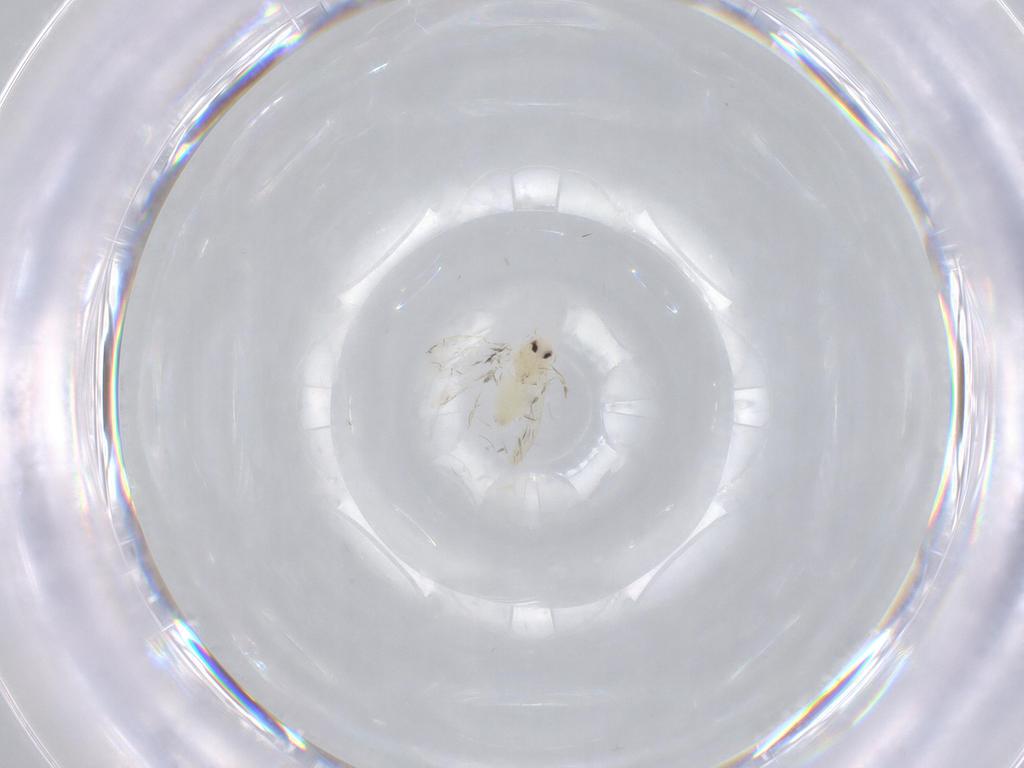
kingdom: Animalia
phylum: Arthropoda
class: Insecta
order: Hemiptera
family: Aleyrodidae
